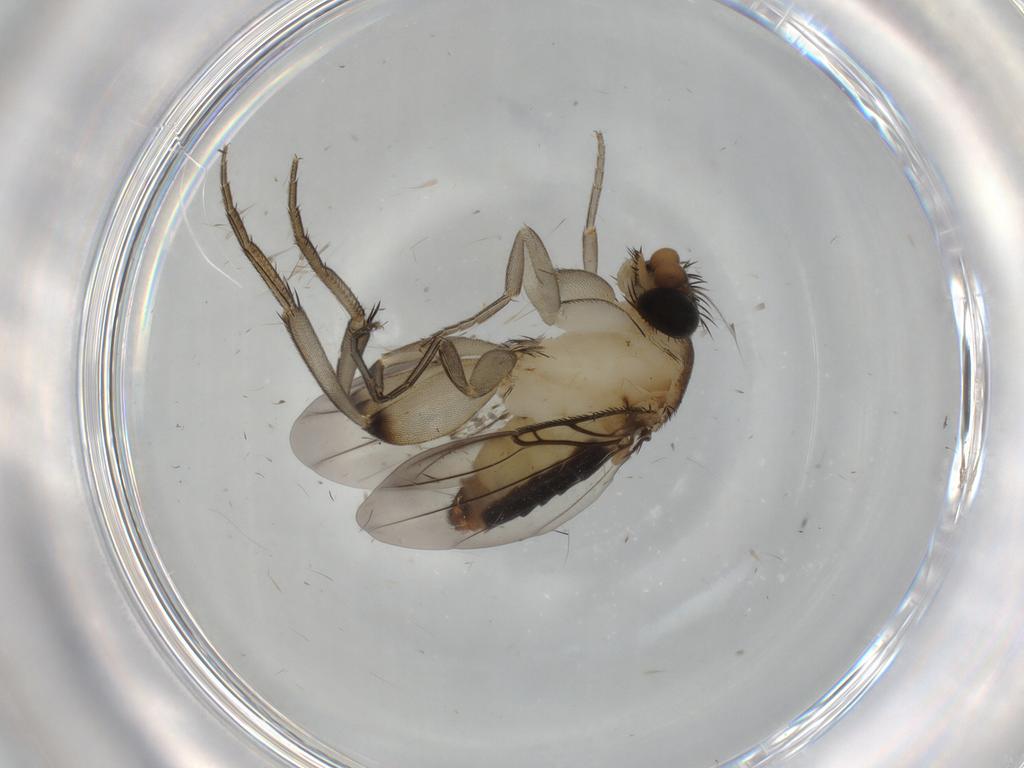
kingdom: Animalia
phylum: Arthropoda
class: Insecta
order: Diptera
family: Phoridae
